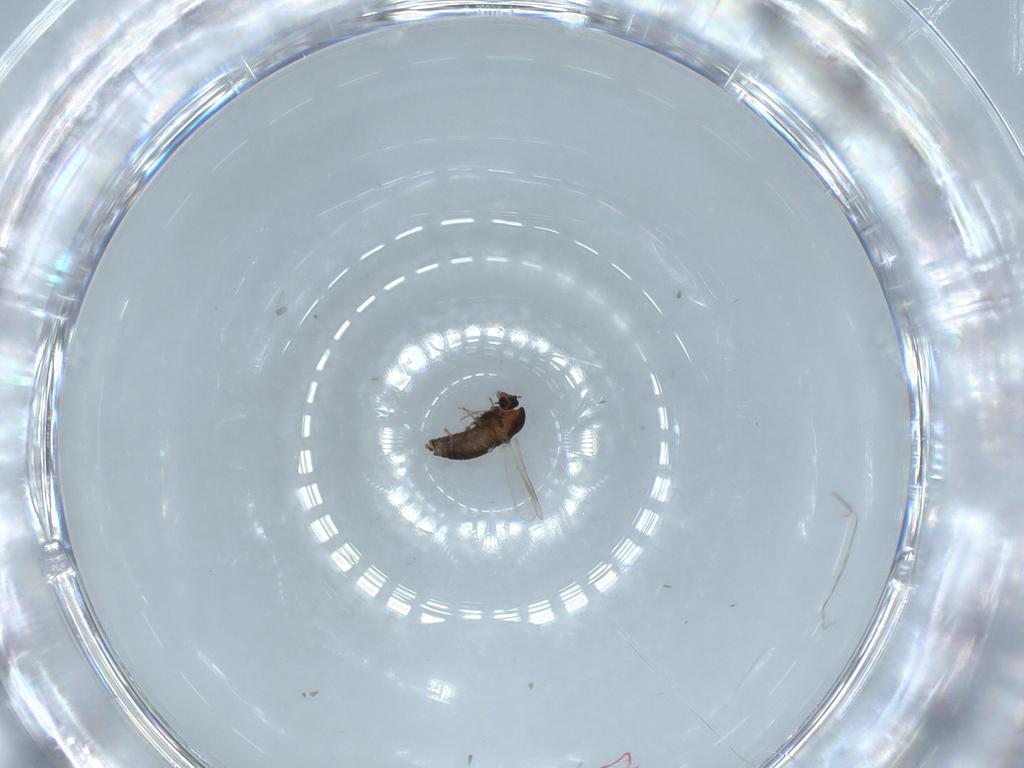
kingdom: Animalia
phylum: Arthropoda
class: Insecta
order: Diptera
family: Chironomidae
